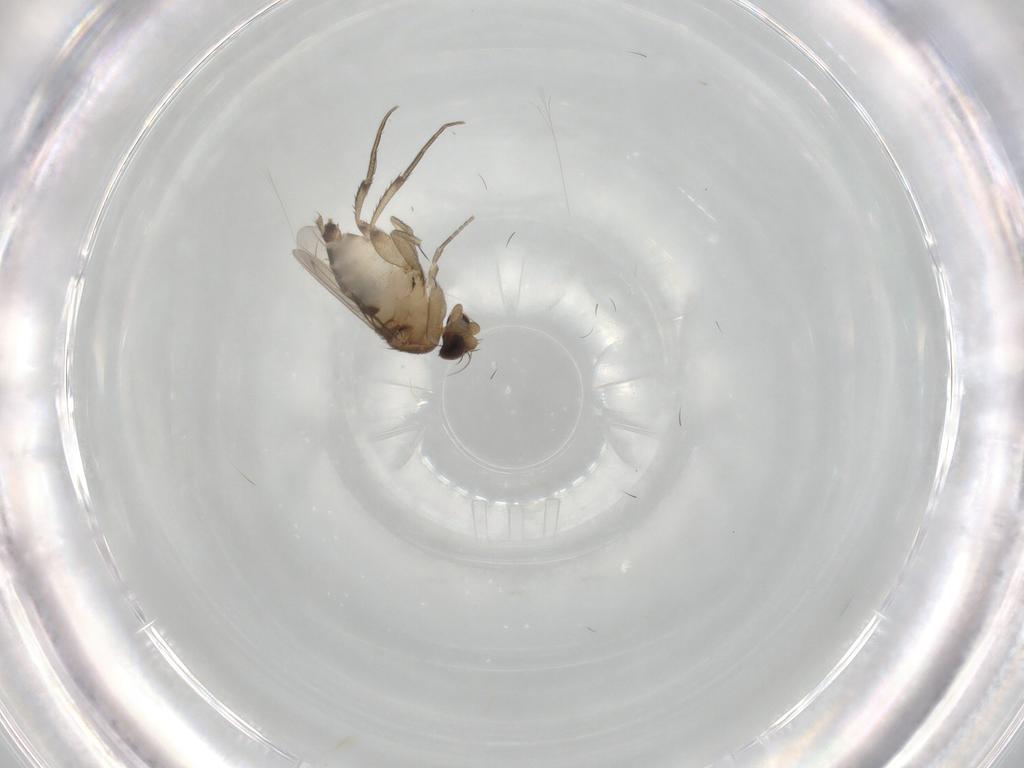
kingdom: Animalia
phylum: Arthropoda
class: Insecta
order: Diptera
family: Phoridae
